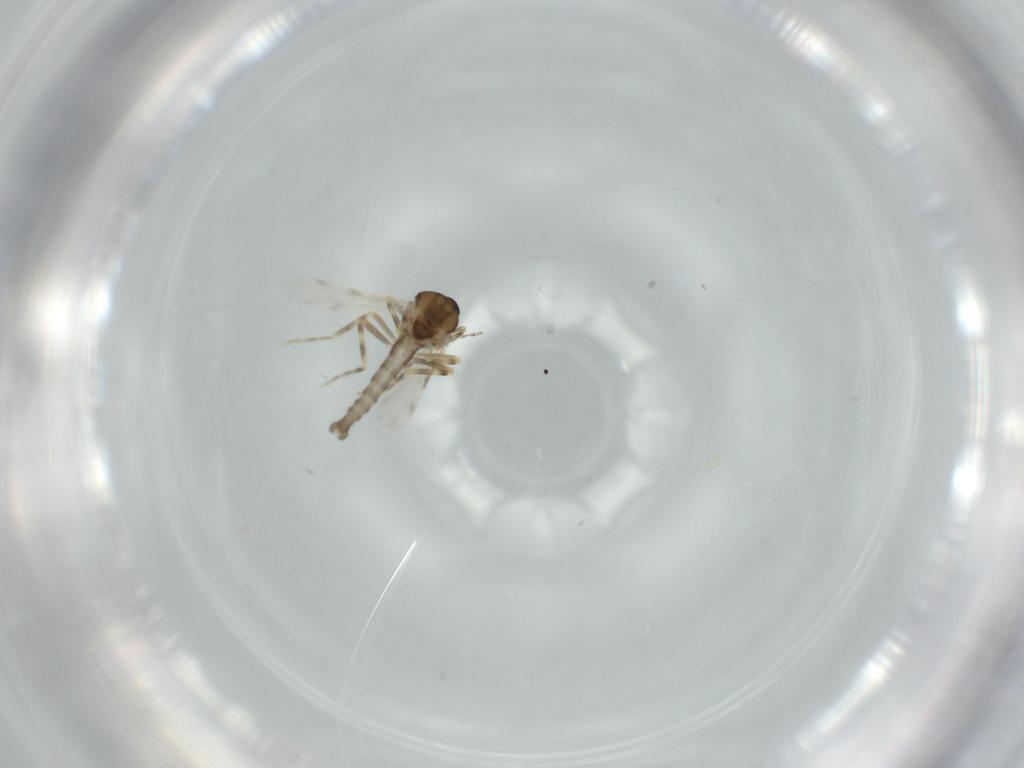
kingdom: Animalia
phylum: Arthropoda
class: Insecta
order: Diptera
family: Ceratopogonidae
